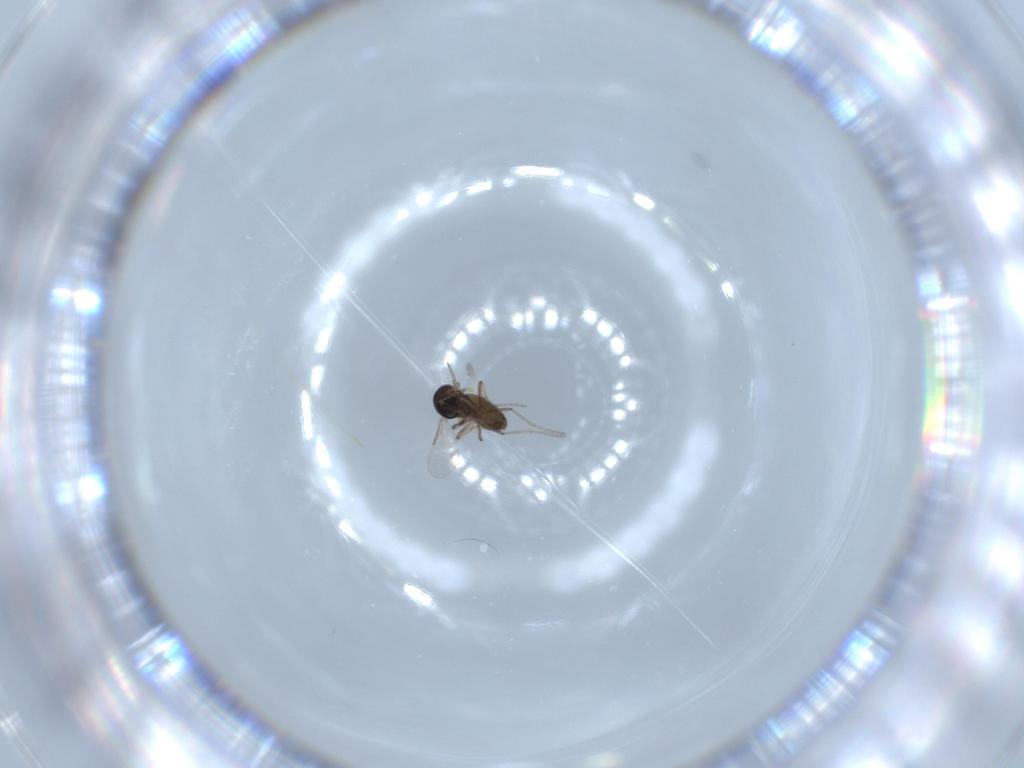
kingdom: Animalia
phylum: Arthropoda
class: Insecta
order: Diptera
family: Ceratopogonidae
